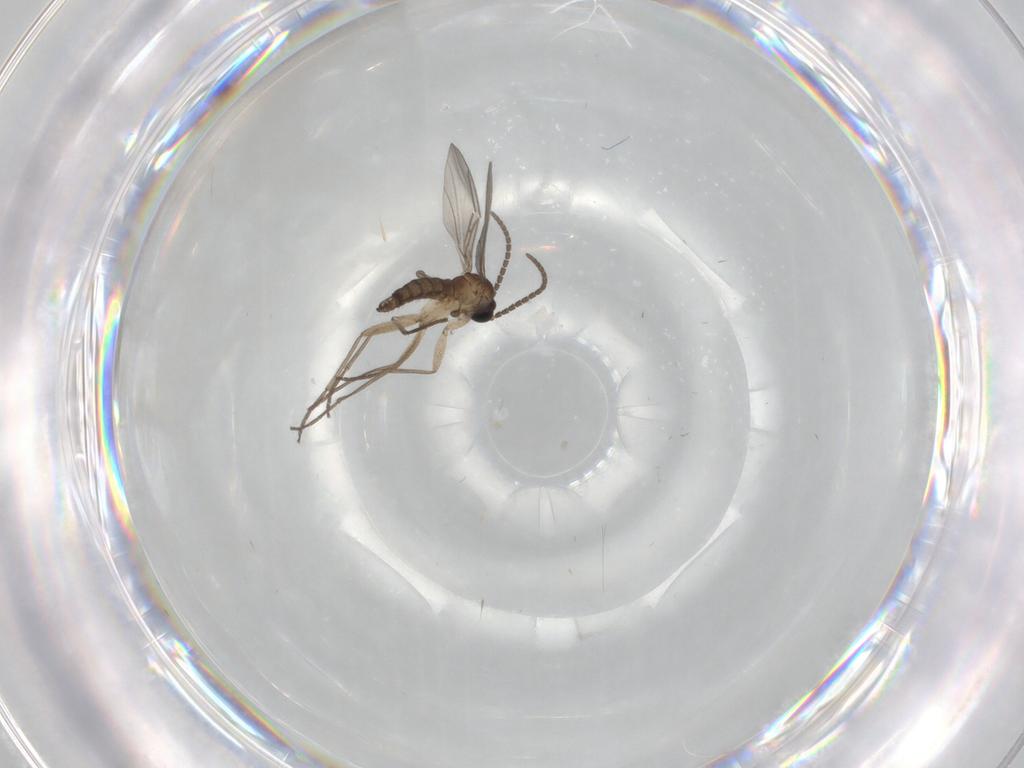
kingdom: Animalia
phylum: Arthropoda
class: Insecta
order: Diptera
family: Sciaridae
